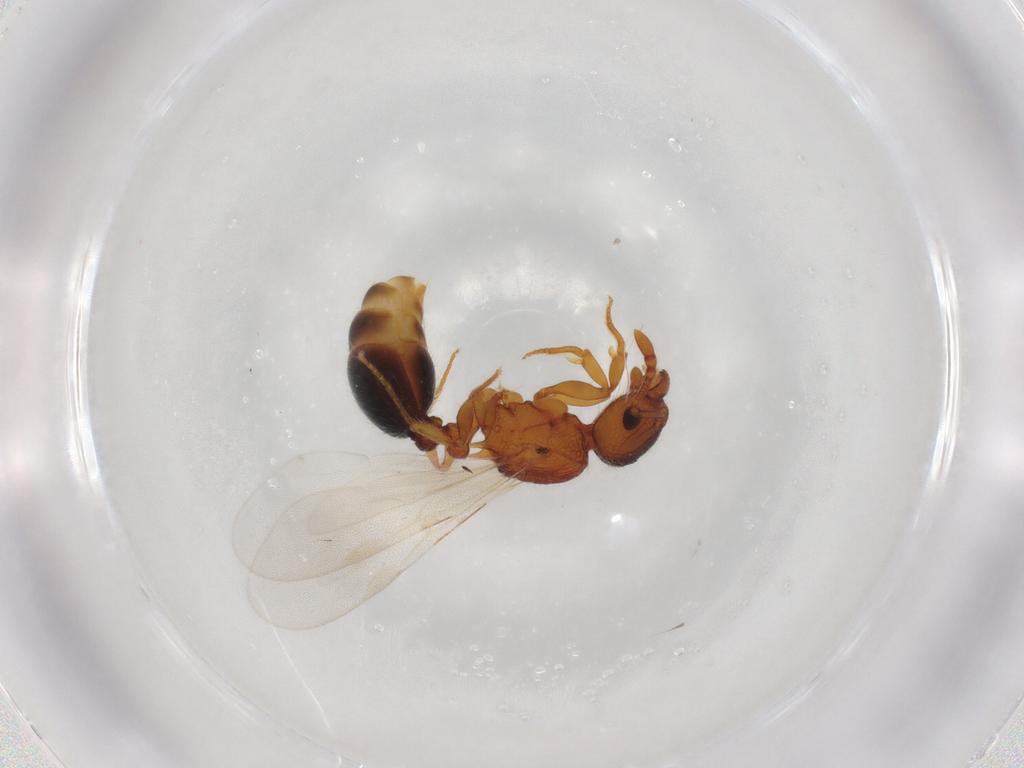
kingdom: Animalia
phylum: Arthropoda
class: Insecta
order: Hymenoptera
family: Formicidae
